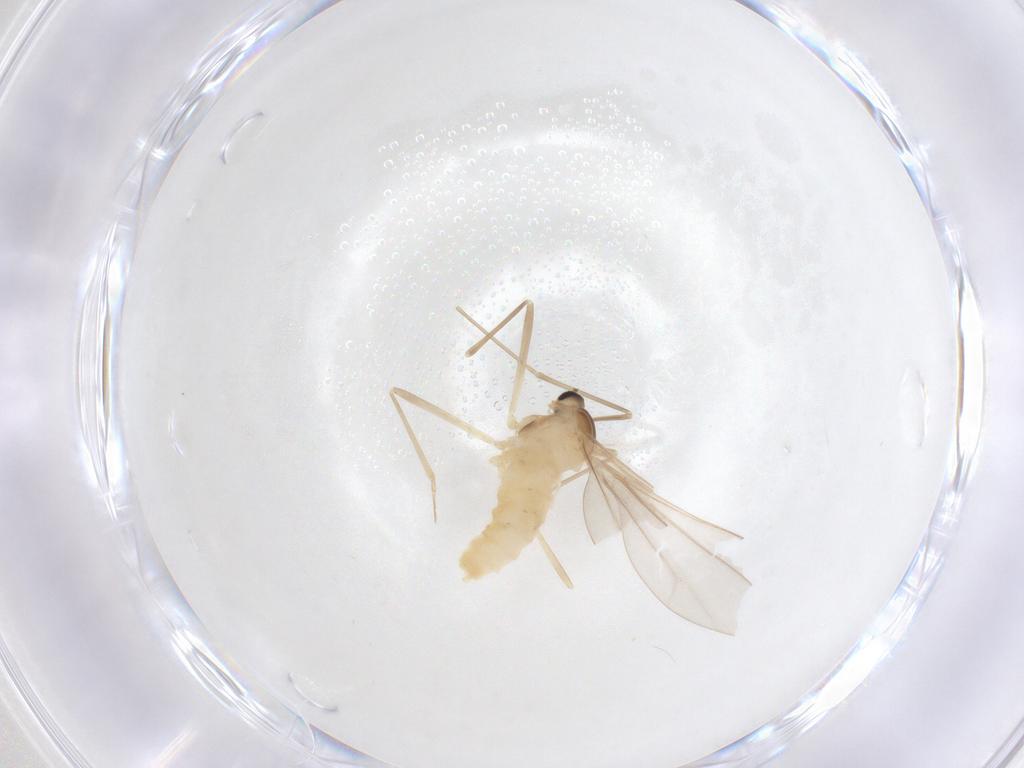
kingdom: Animalia
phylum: Arthropoda
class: Insecta
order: Diptera
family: Cecidomyiidae
